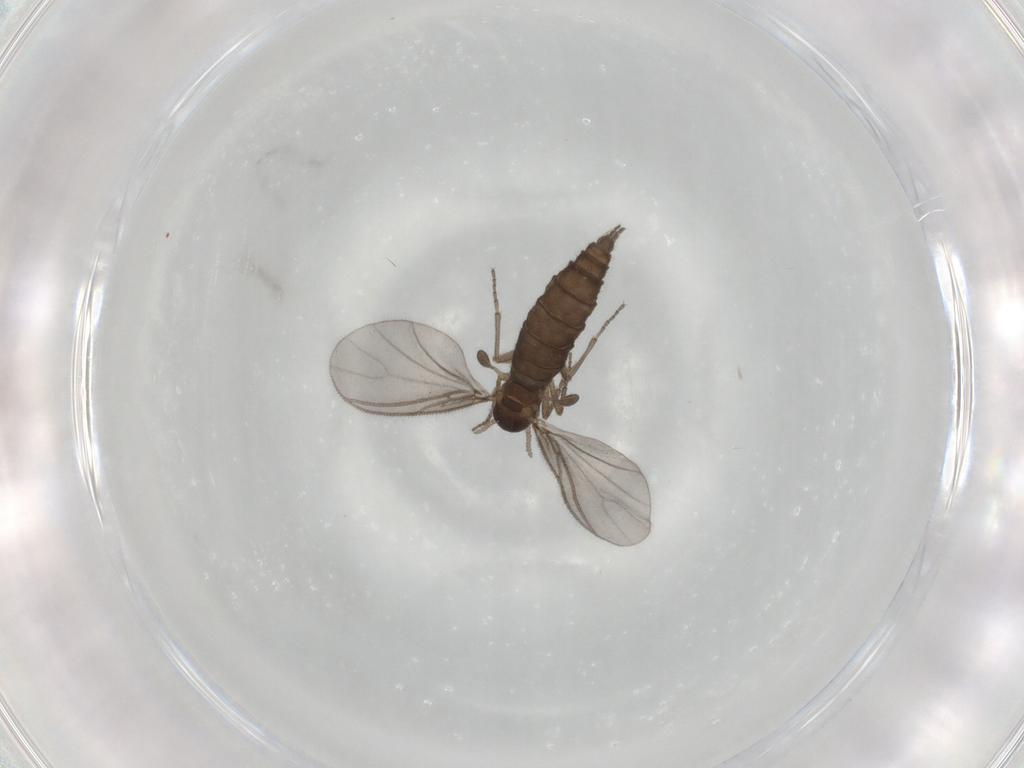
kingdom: Animalia
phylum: Arthropoda
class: Insecta
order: Diptera
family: Sciaridae
